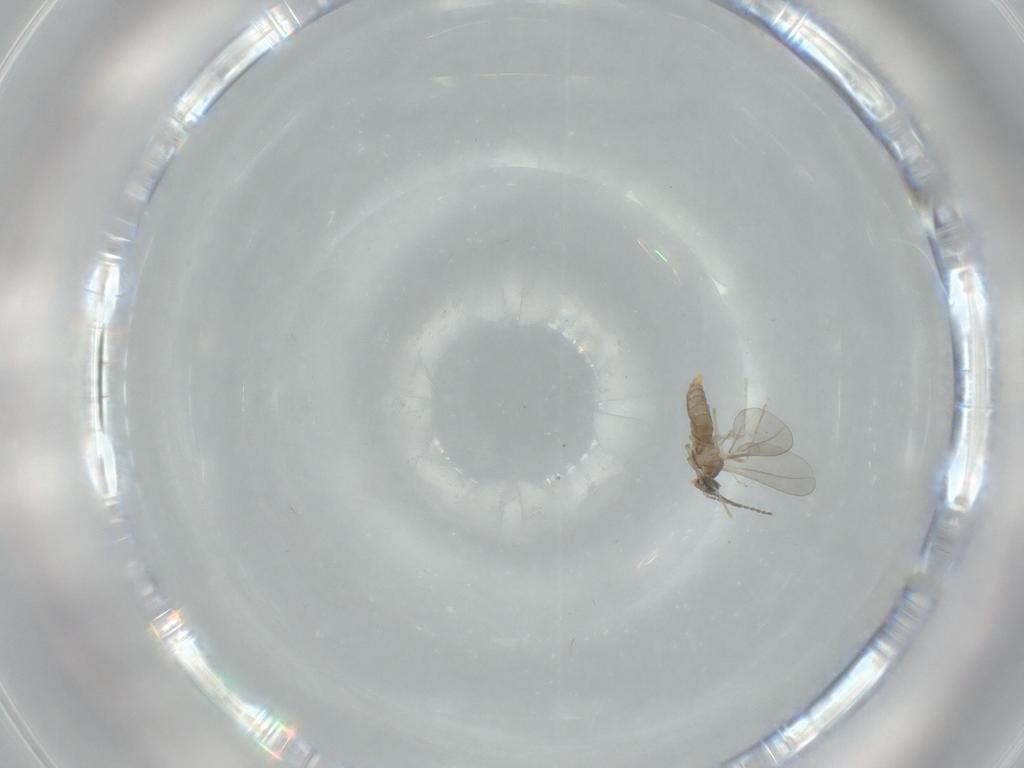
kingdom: Animalia
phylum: Arthropoda
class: Insecta
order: Diptera
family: Cecidomyiidae
